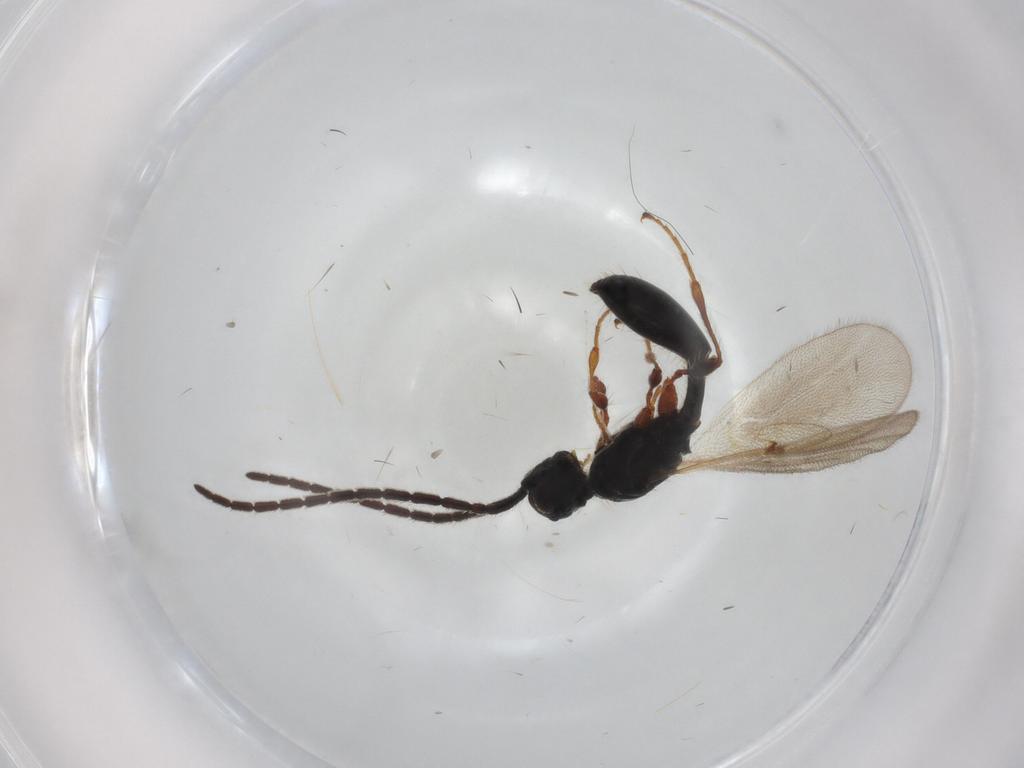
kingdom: Animalia
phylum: Arthropoda
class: Insecta
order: Hymenoptera
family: Diapriidae
